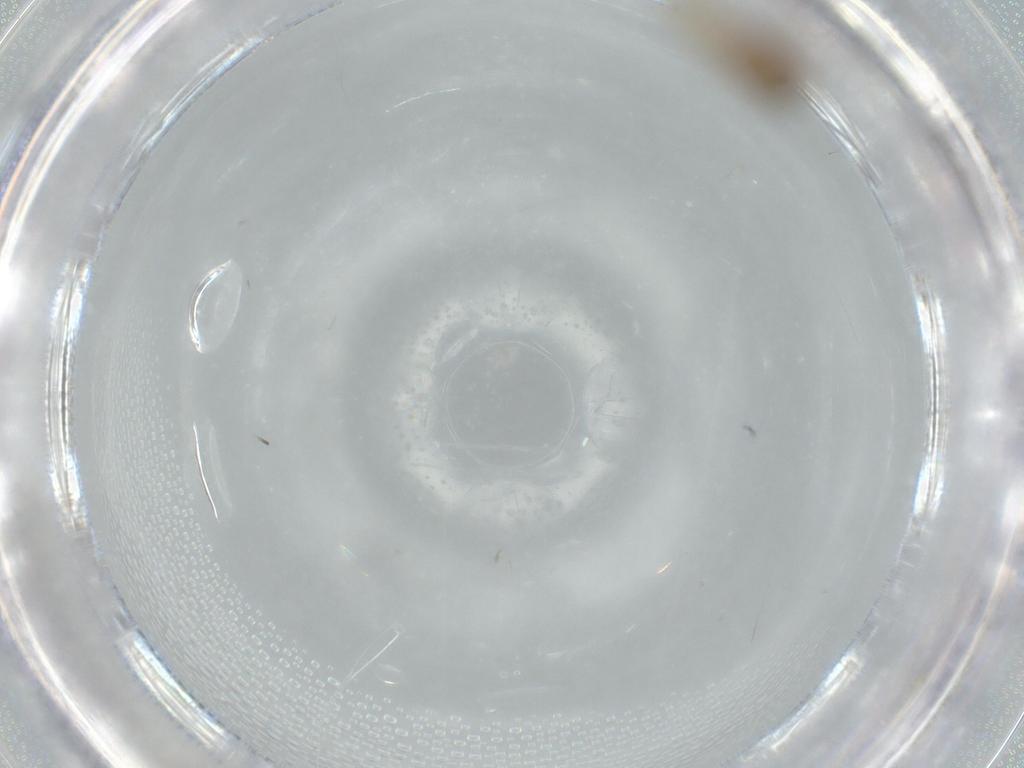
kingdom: Animalia
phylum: Arthropoda
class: Insecta
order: Psocodea
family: Lachesillidae
